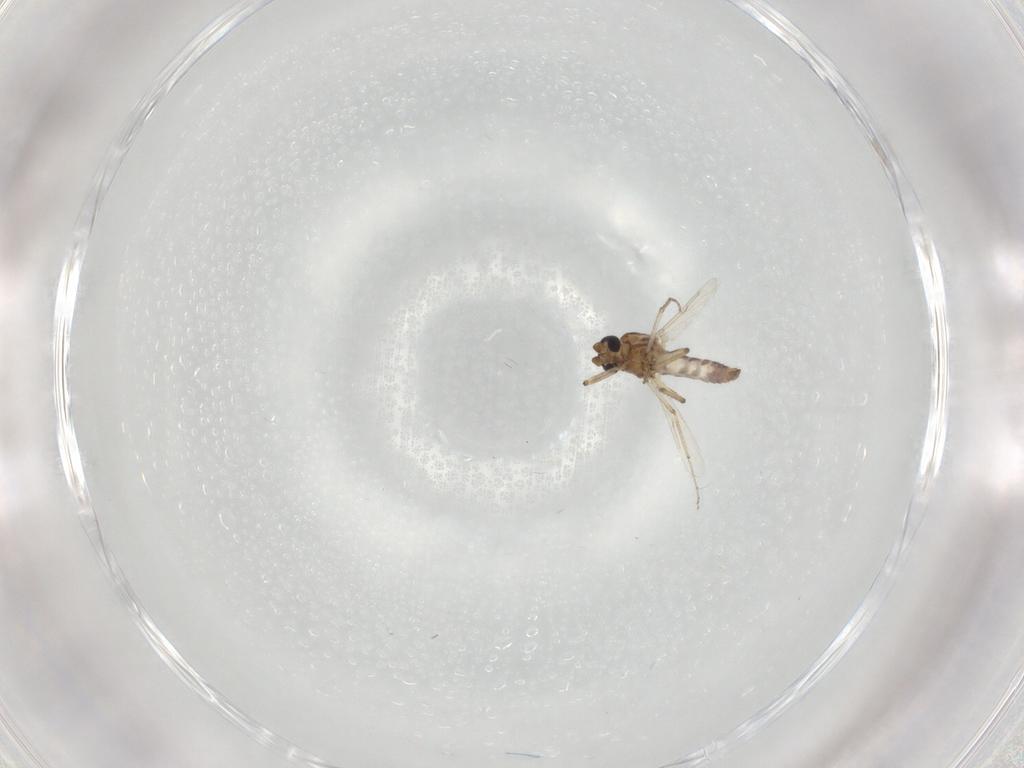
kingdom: Animalia
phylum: Arthropoda
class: Insecta
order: Diptera
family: Ceratopogonidae
